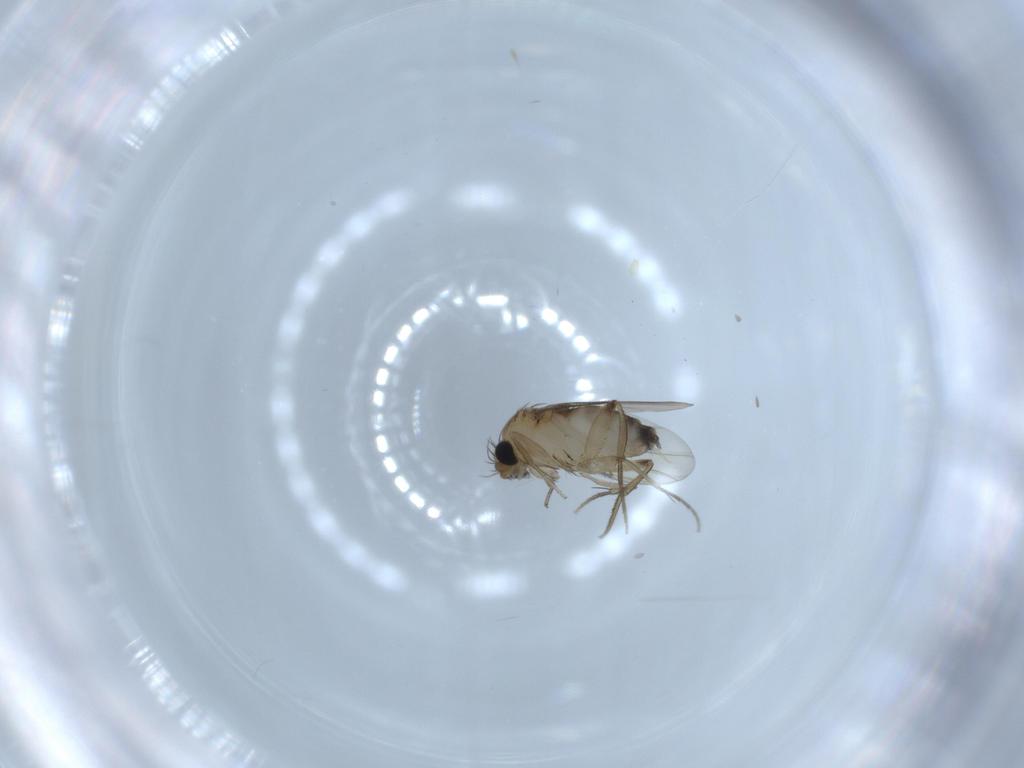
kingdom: Animalia
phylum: Arthropoda
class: Insecta
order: Diptera
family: Phoridae
